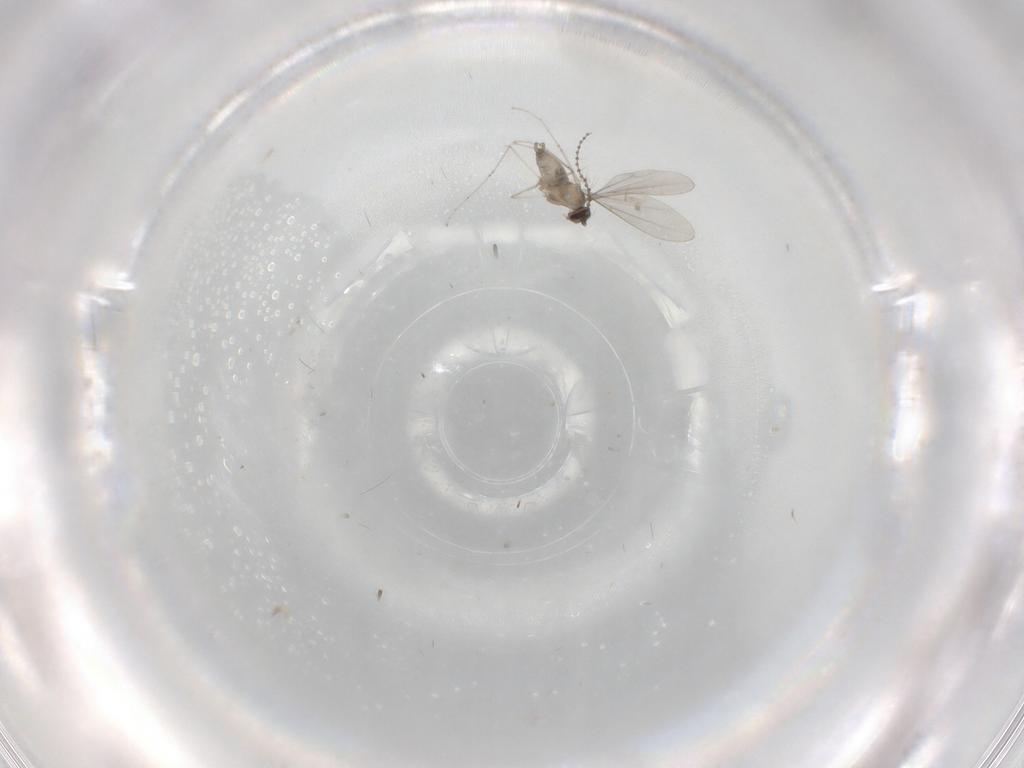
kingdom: Animalia
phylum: Arthropoda
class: Insecta
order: Diptera
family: Cecidomyiidae
